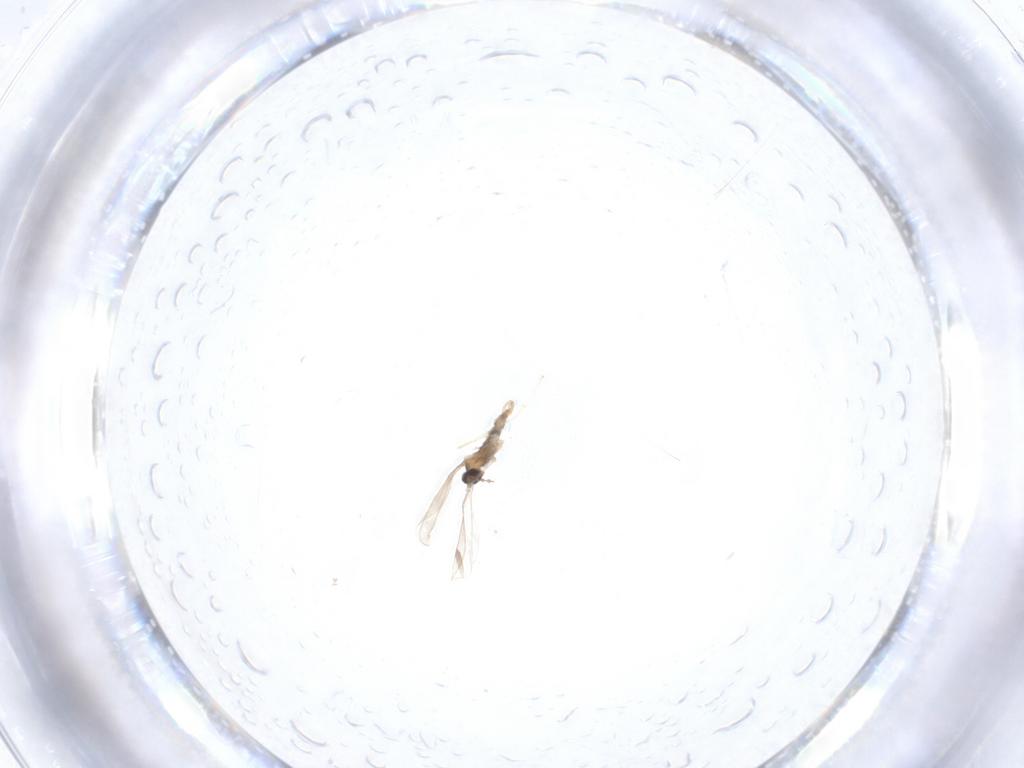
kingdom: Animalia
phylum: Arthropoda
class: Insecta
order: Diptera
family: Cecidomyiidae
